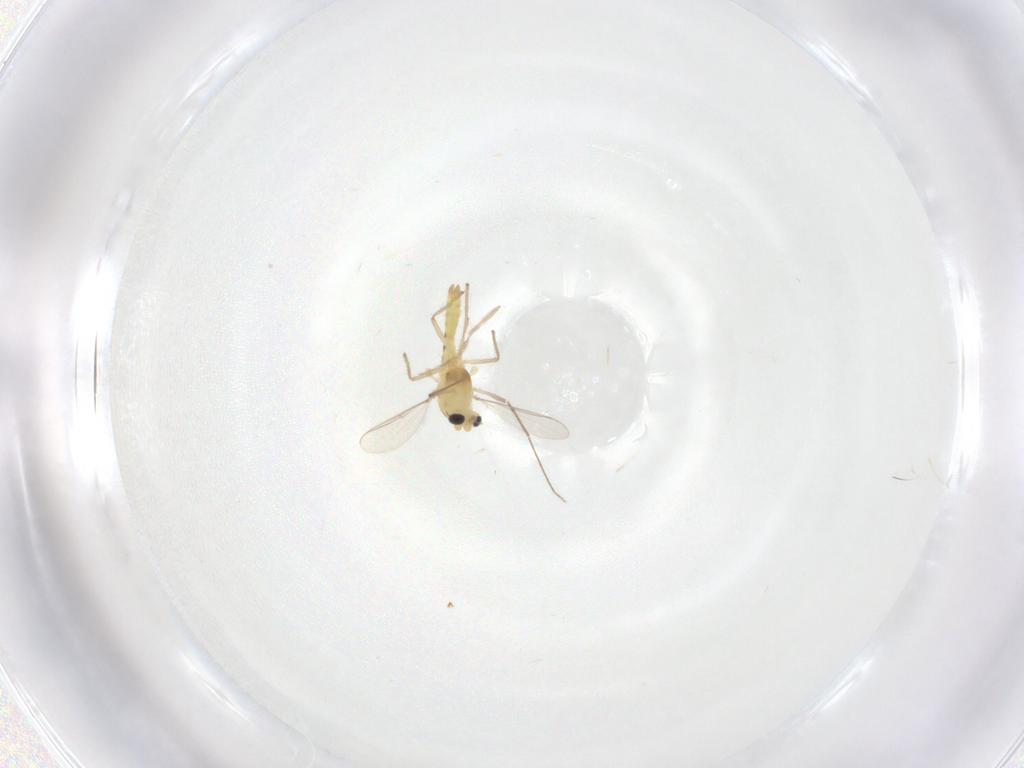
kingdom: Animalia
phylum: Arthropoda
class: Insecta
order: Diptera
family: Chironomidae
